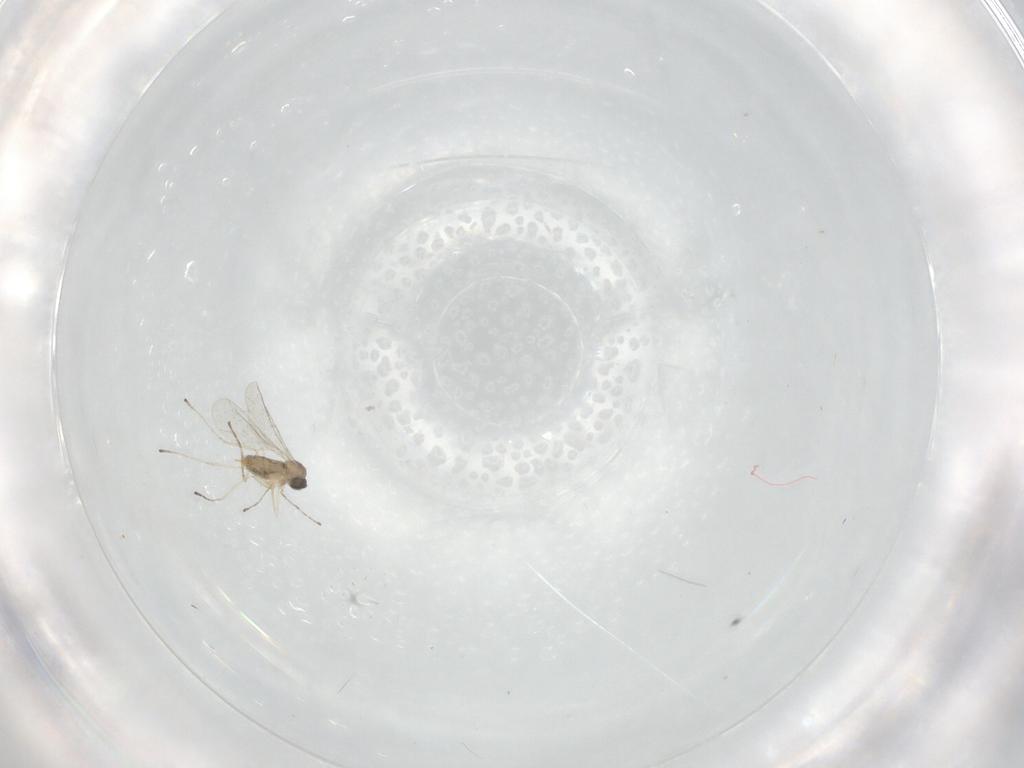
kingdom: Animalia
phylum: Arthropoda
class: Insecta
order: Diptera
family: Cecidomyiidae
